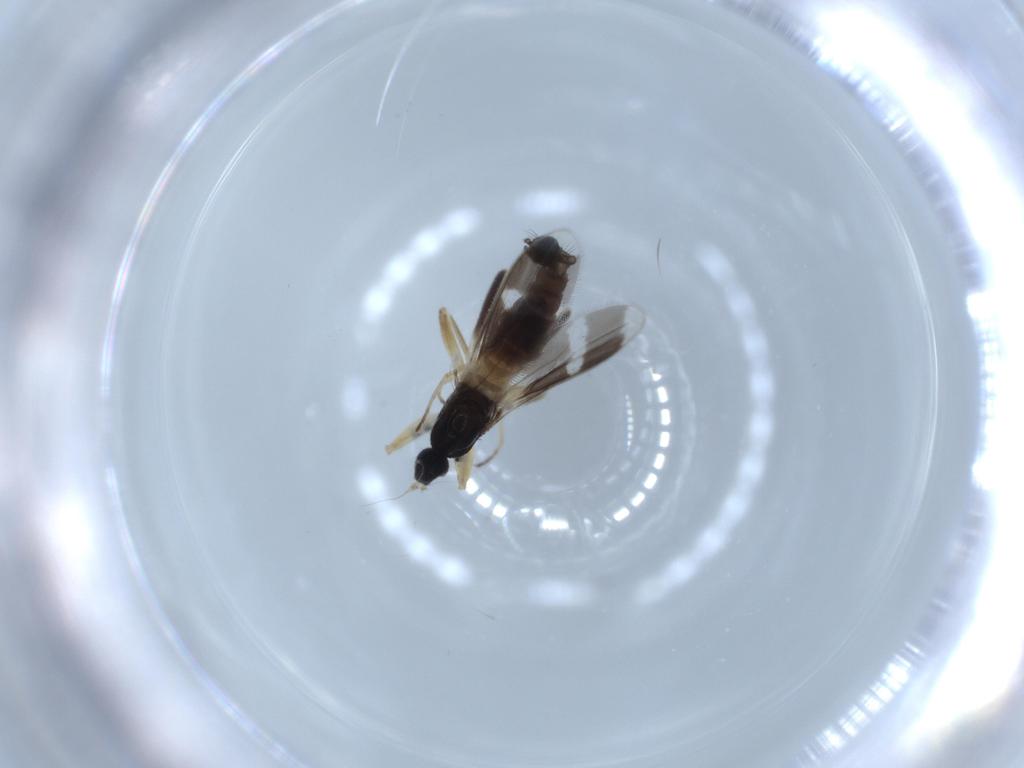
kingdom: Animalia
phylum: Arthropoda
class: Insecta
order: Diptera
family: Hybotidae
